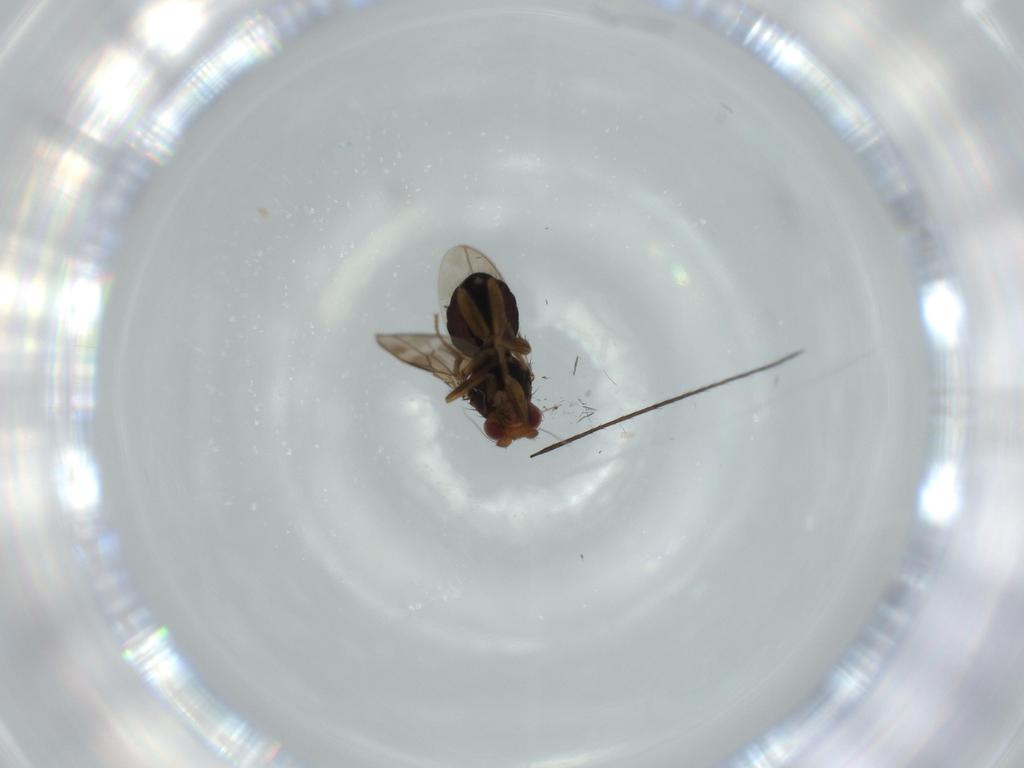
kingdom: Animalia
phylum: Arthropoda
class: Insecta
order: Diptera
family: Sphaeroceridae
